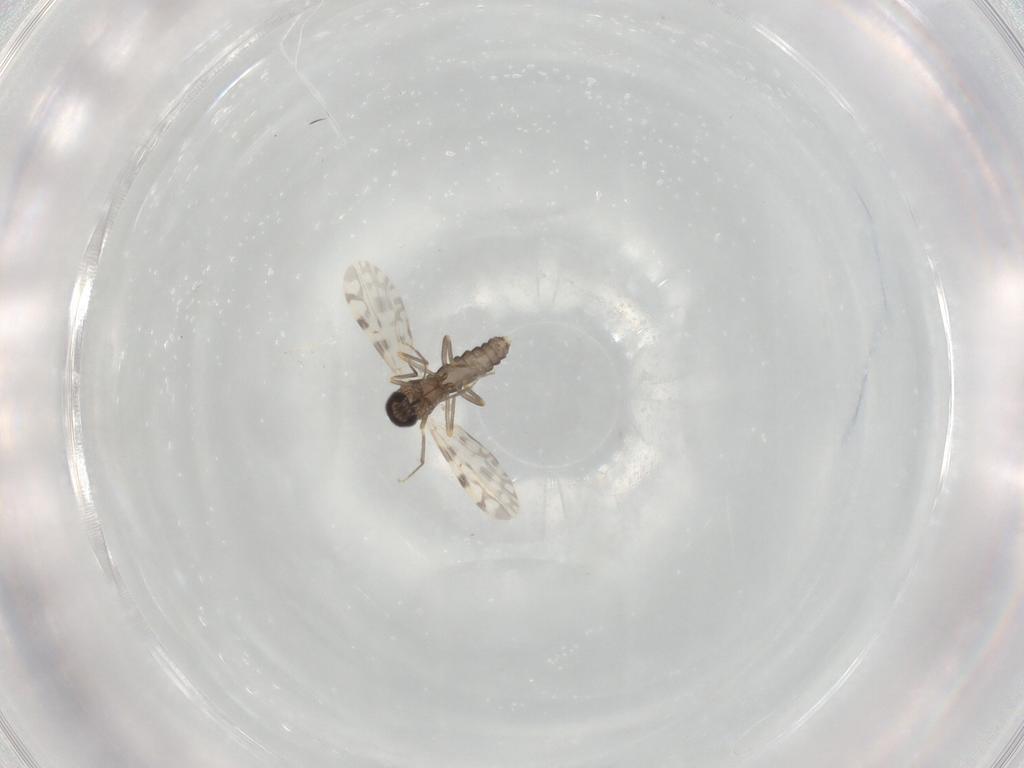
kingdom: Animalia
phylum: Arthropoda
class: Insecta
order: Diptera
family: Ceratopogonidae
